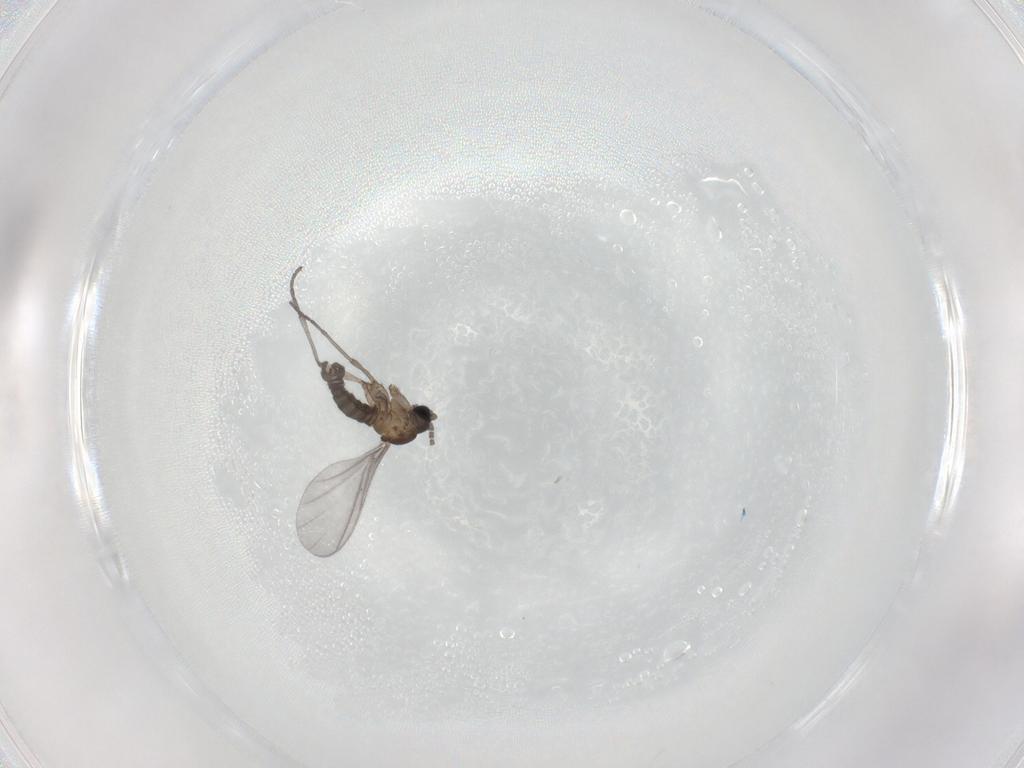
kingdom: Animalia
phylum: Arthropoda
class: Insecta
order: Diptera
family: Sciaridae
